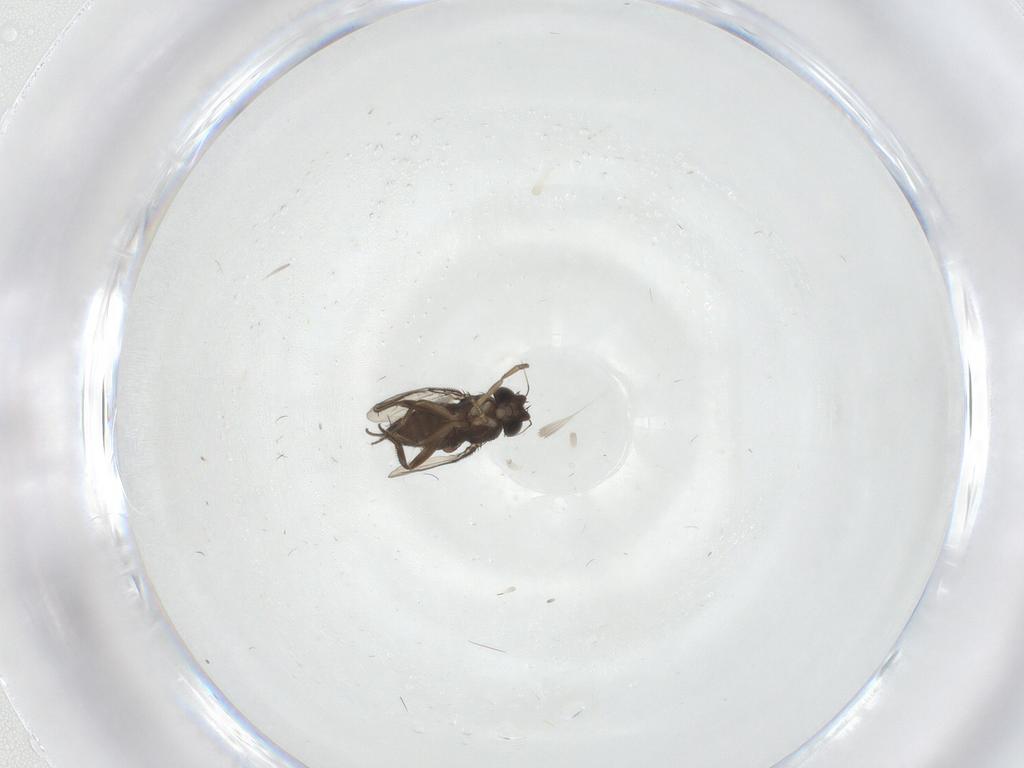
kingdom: Animalia
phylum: Arthropoda
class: Insecta
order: Diptera
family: Phoridae
